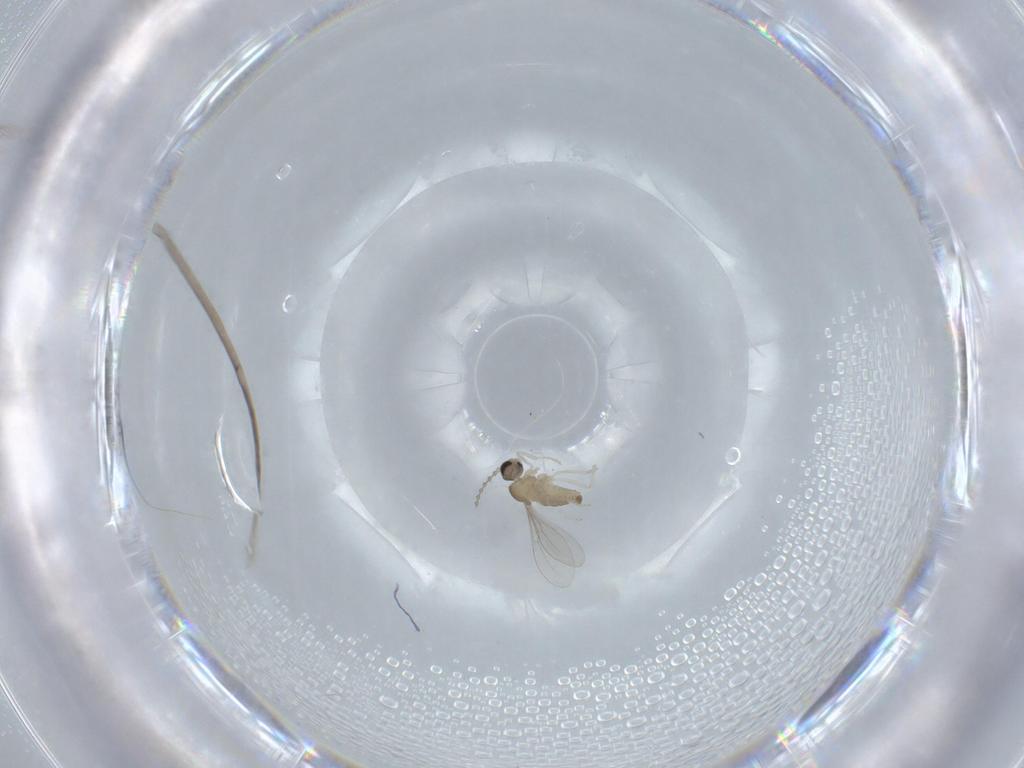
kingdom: Animalia
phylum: Arthropoda
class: Insecta
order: Diptera
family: Cecidomyiidae
